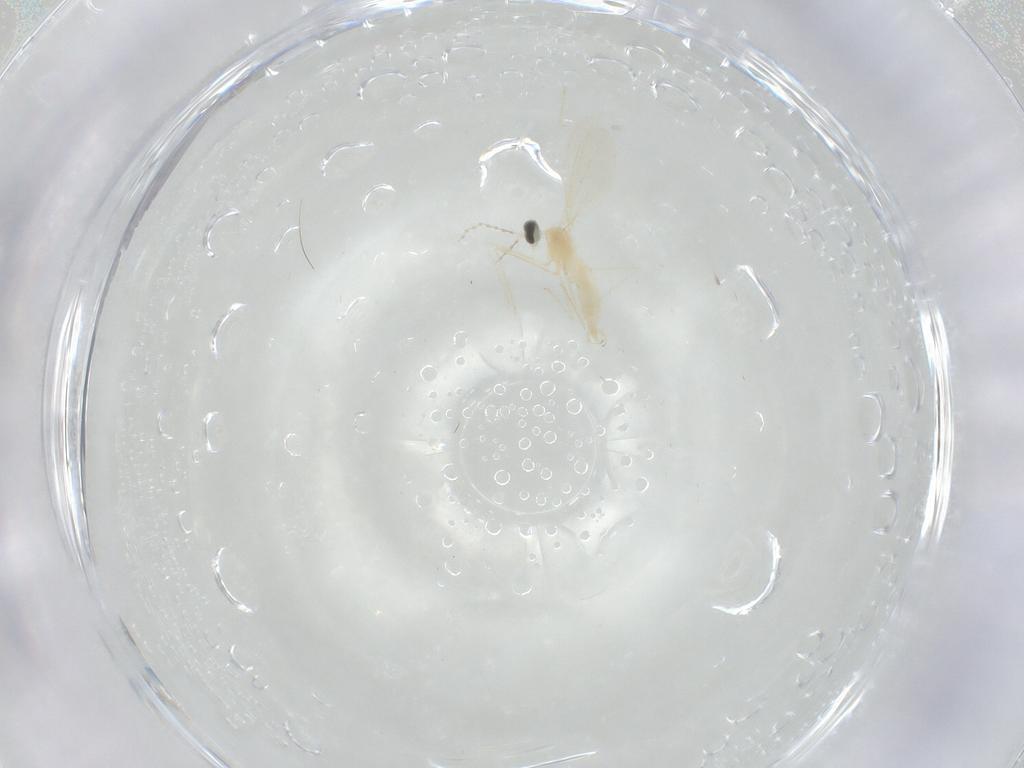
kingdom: Animalia
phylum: Arthropoda
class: Insecta
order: Diptera
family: Cecidomyiidae
